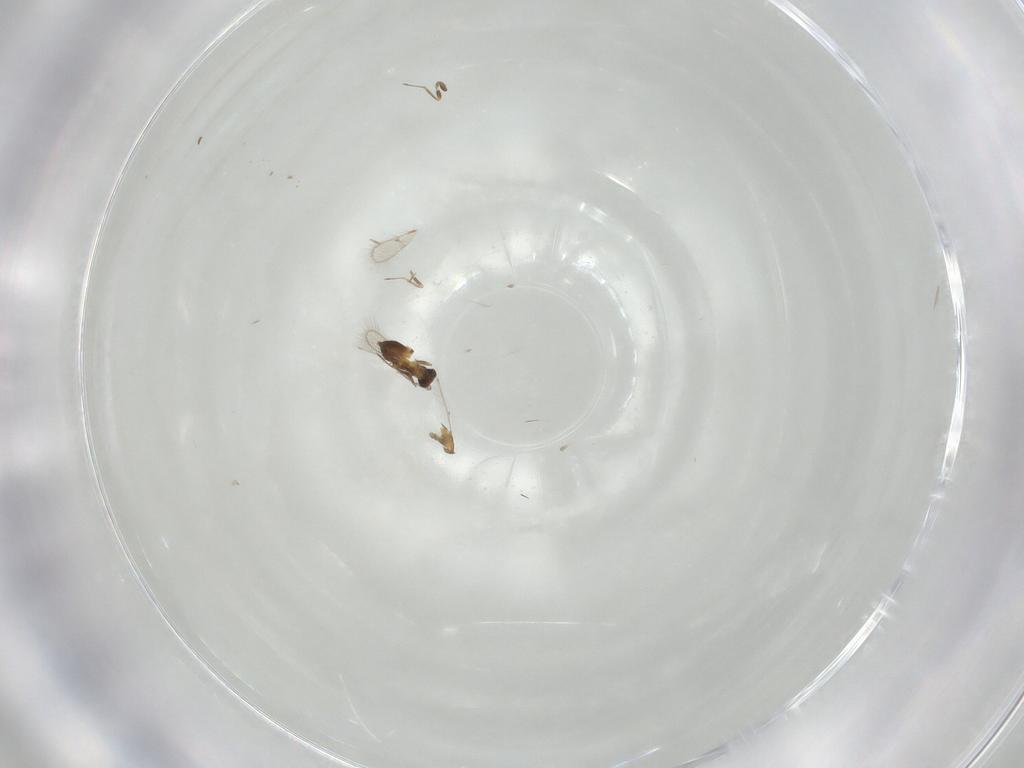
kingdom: Animalia
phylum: Arthropoda
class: Insecta
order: Hymenoptera
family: Trichogrammatidae
